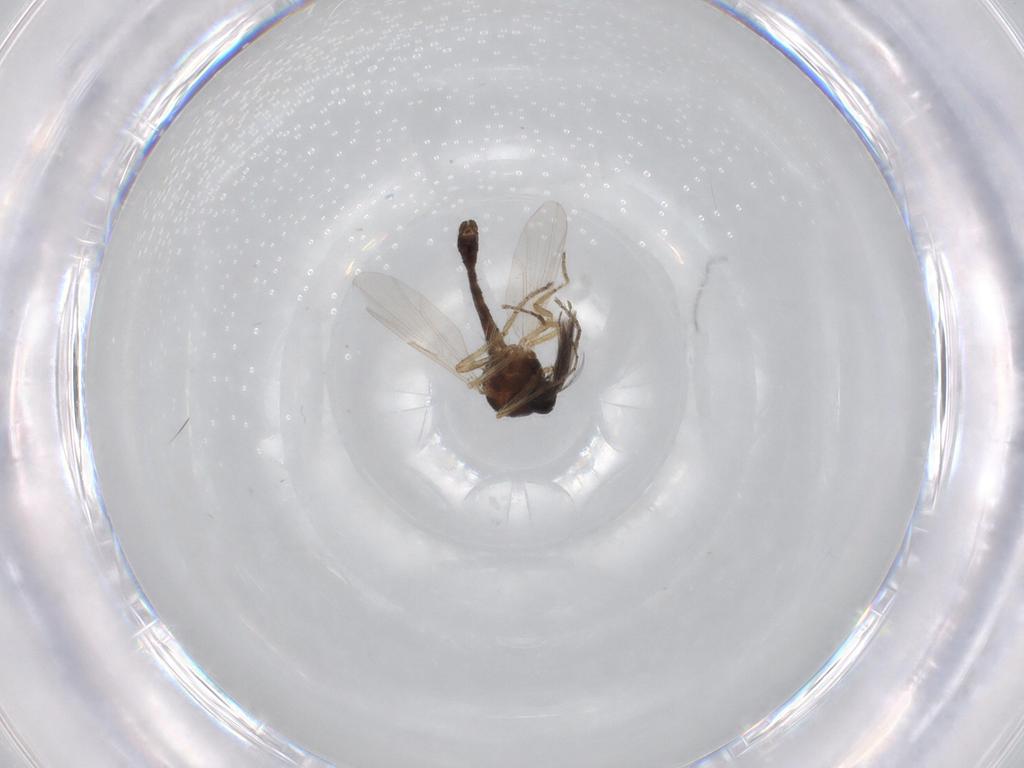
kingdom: Animalia
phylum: Arthropoda
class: Insecta
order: Diptera
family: Ceratopogonidae
